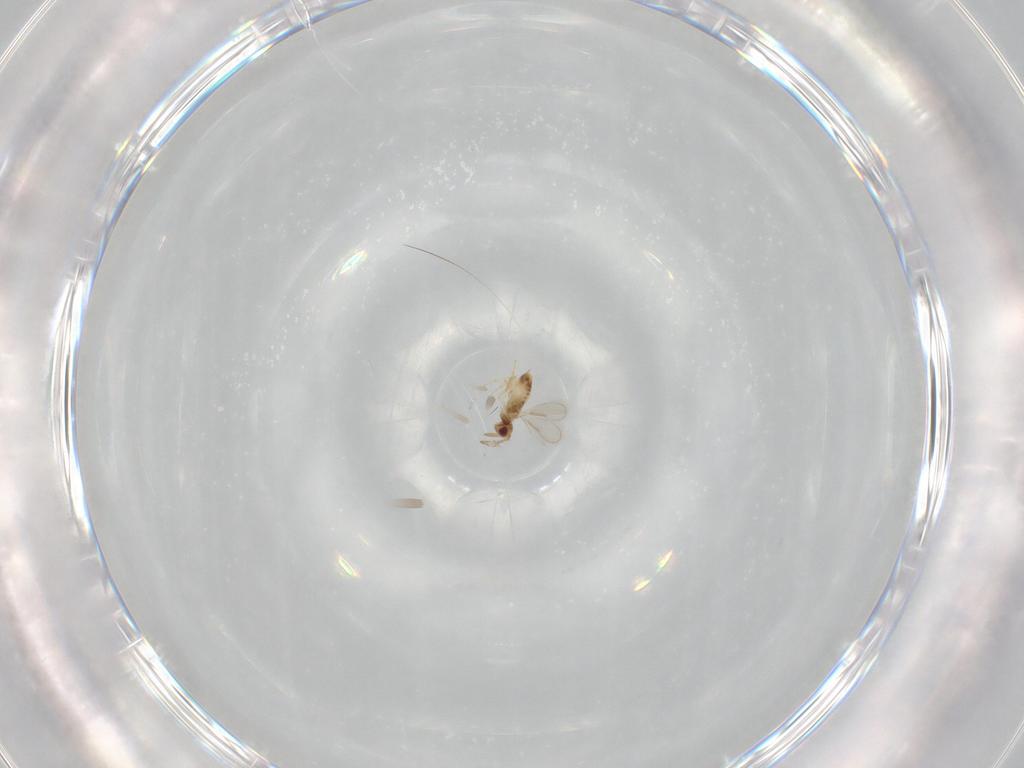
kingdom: Animalia
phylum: Arthropoda
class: Insecta
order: Hymenoptera
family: Aphelinidae
